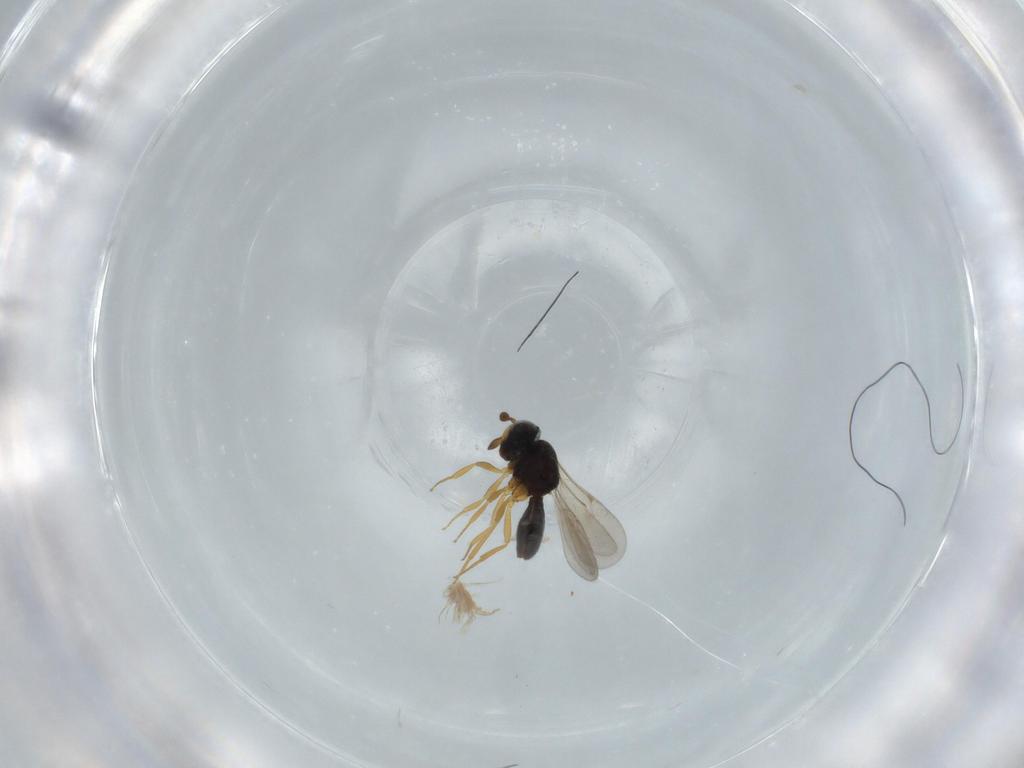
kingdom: Animalia
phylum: Arthropoda
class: Insecta
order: Hymenoptera
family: Scelionidae
